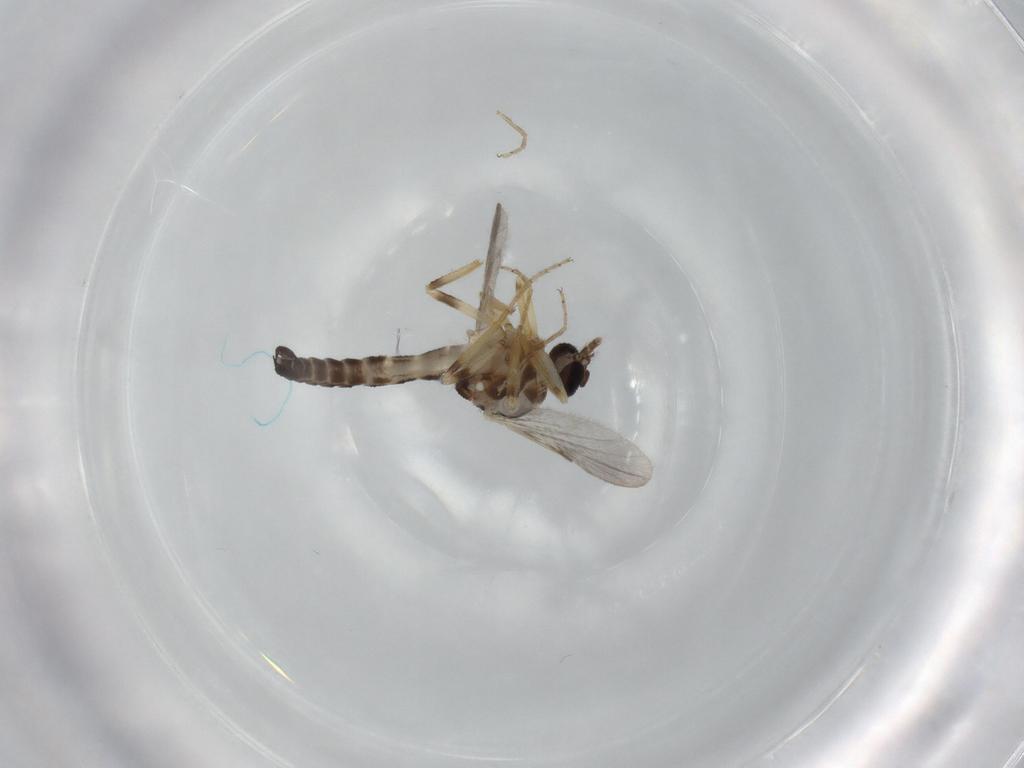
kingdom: Animalia
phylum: Arthropoda
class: Insecta
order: Diptera
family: Ceratopogonidae
